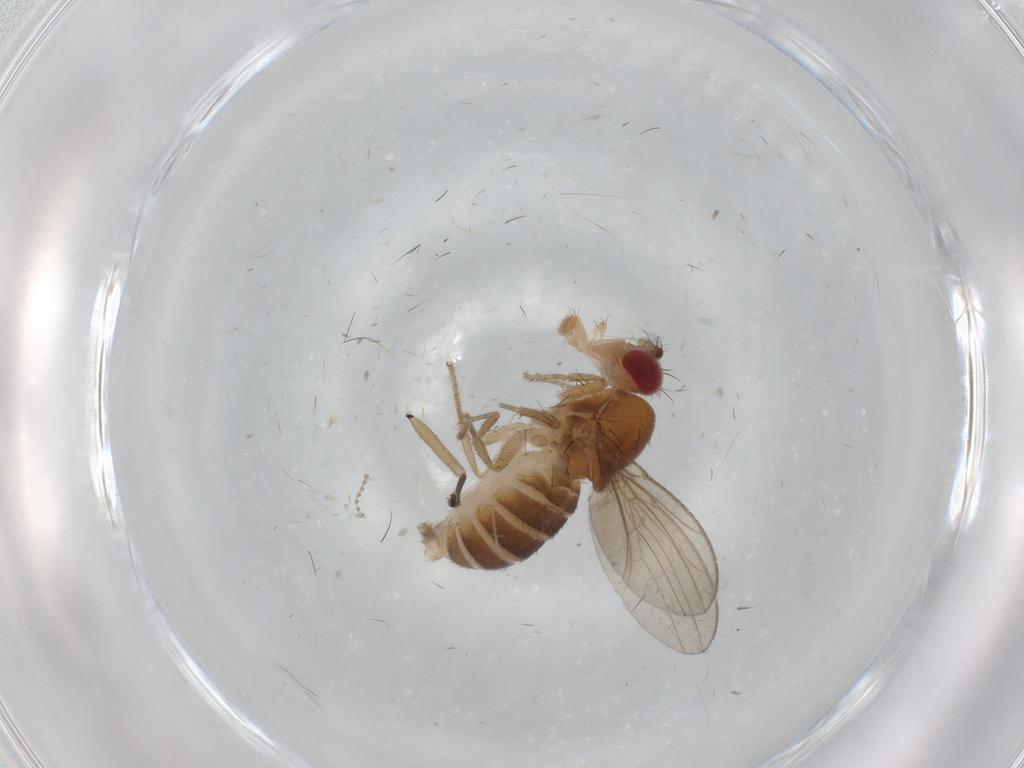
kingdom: Animalia
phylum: Arthropoda
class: Insecta
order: Diptera
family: Drosophilidae
